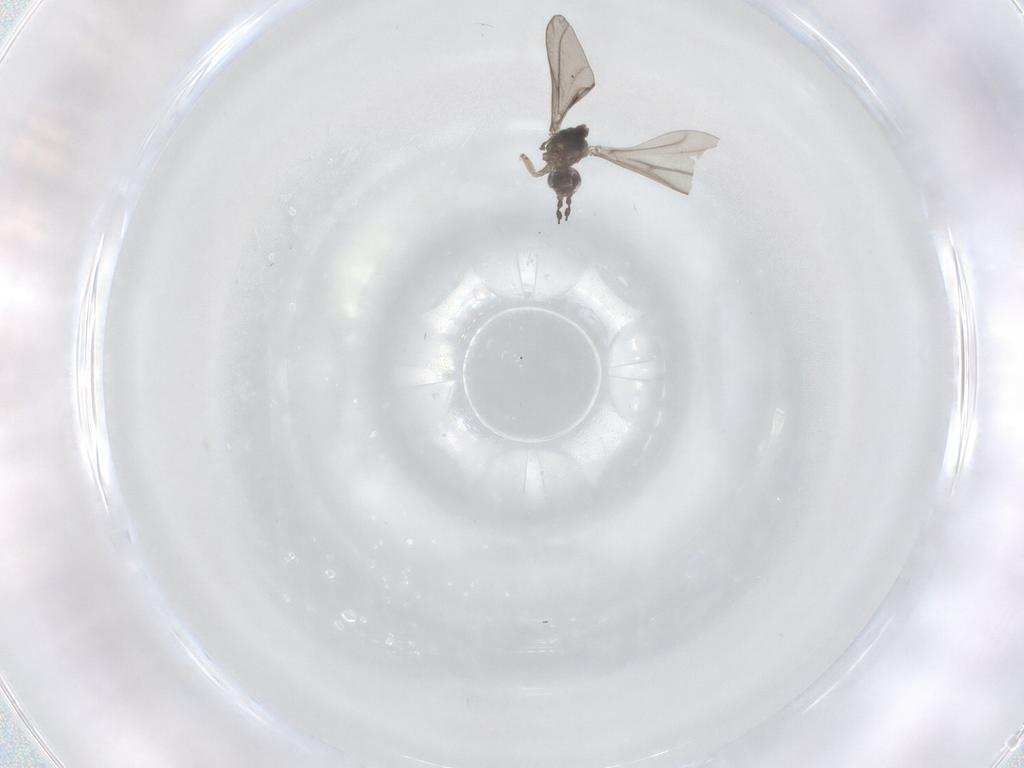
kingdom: Animalia
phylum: Arthropoda
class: Insecta
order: Diptera
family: Cecidomyiidae
